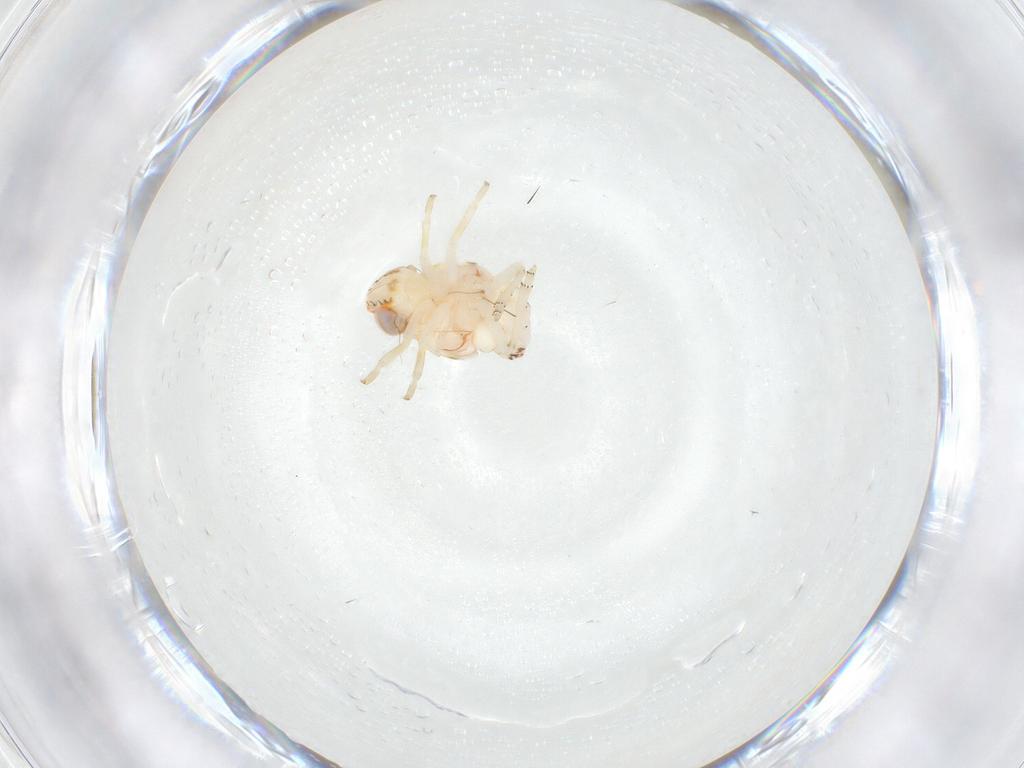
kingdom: Animalia
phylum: Arthropoda
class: Insecta
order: Hemiptera
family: Nogodinidae
